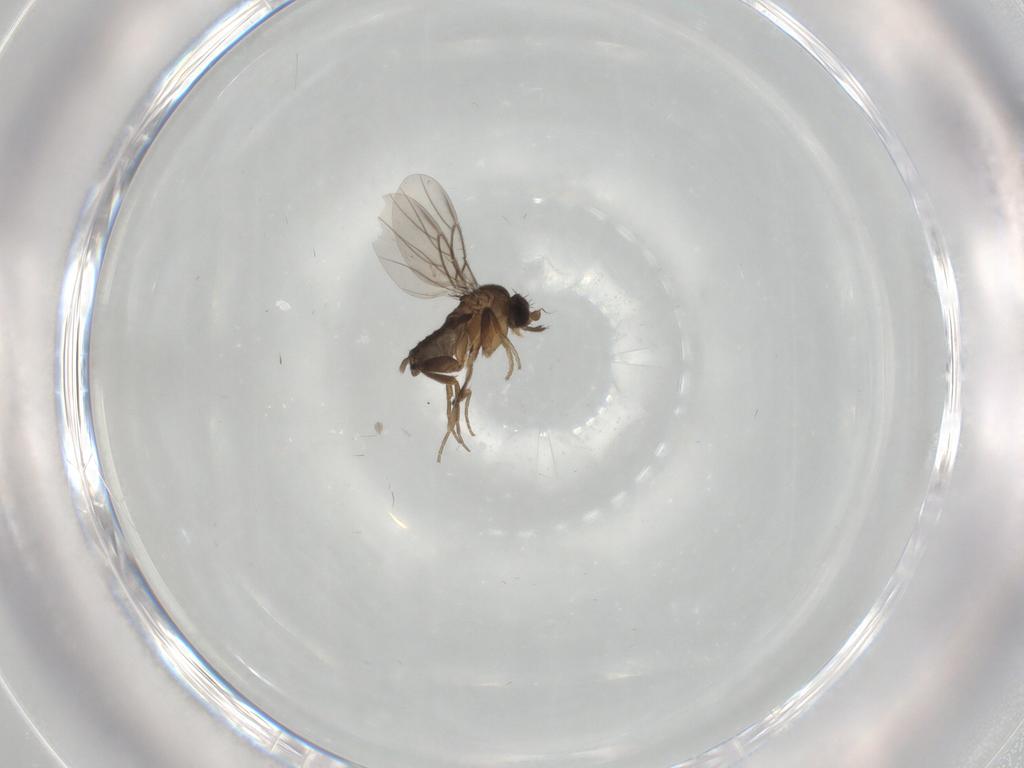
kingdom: Animalia
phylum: Arthropoda
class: Insecta
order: Diptera
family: Phoridae
